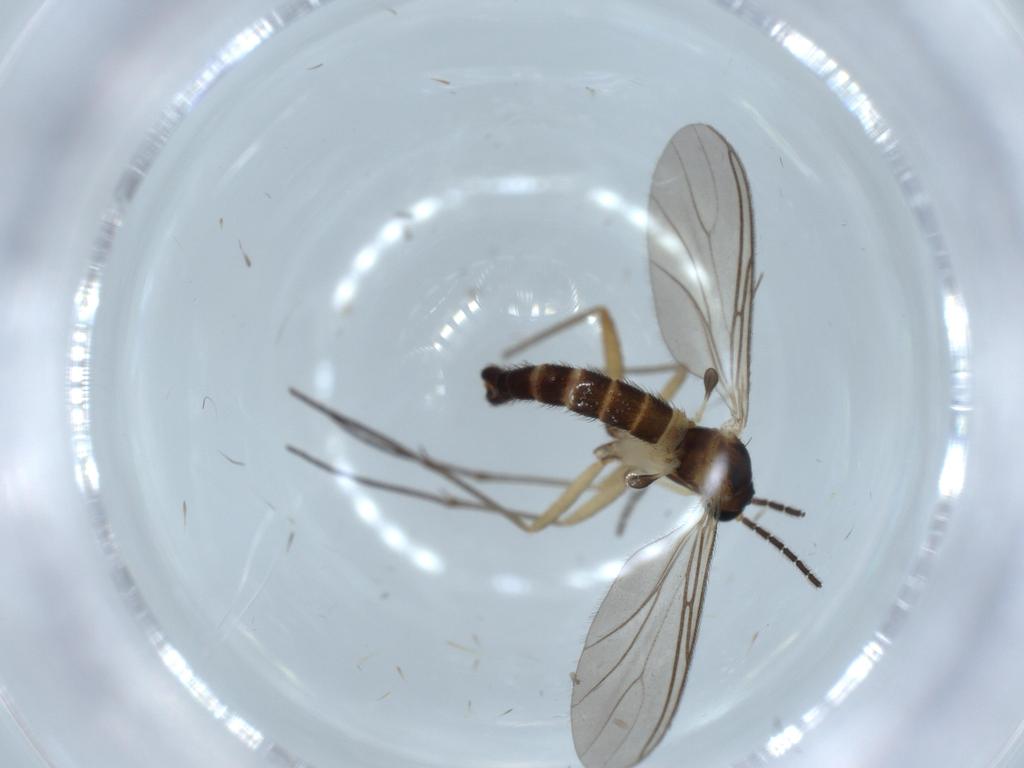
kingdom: Animalia
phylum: Arthropoda
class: Insecta
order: Diptera
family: Sciaridae
